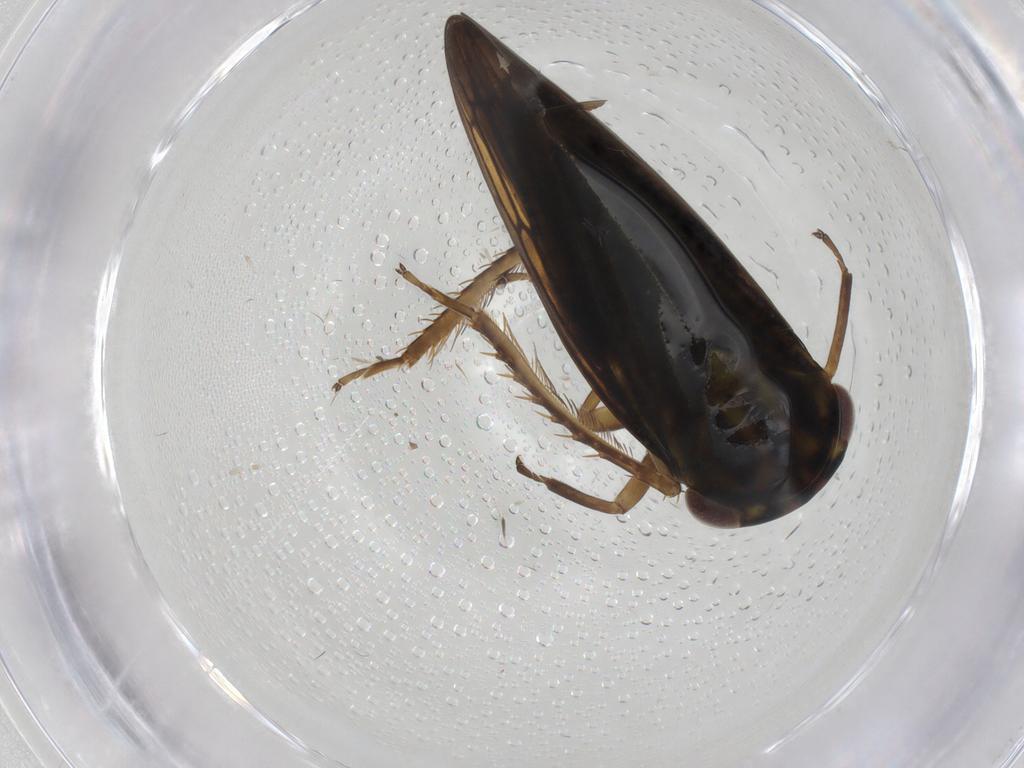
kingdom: Animalia
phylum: Arthropoda
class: Insecta
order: Hemiptera
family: Cicadellidae
